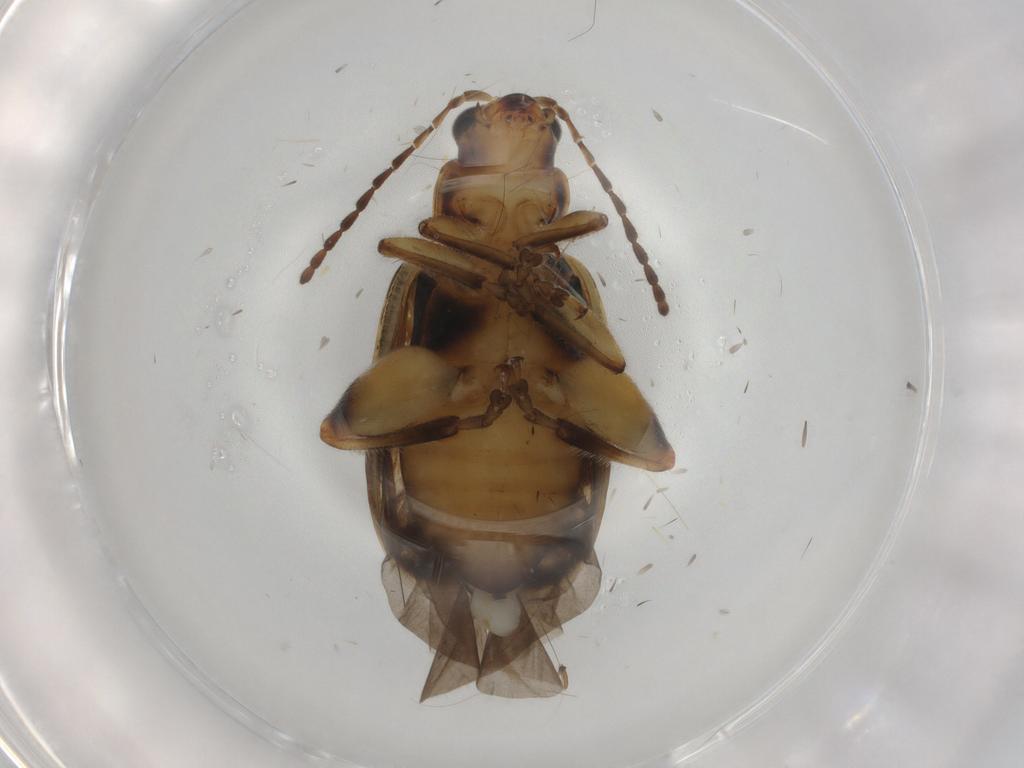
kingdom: Animalia
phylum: Arthropoda
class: Insecta
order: Coleoptera
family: Chrysomelidae
